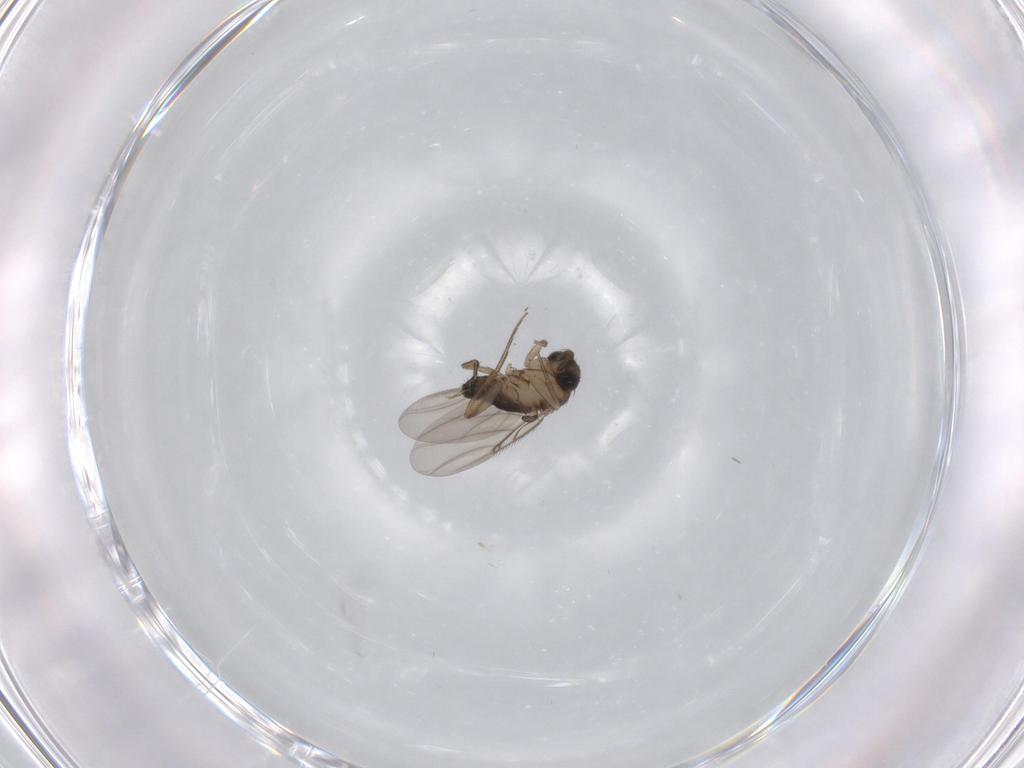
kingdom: Animalia
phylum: Arthropoda
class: Insecta
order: Diptera
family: Phoridae
